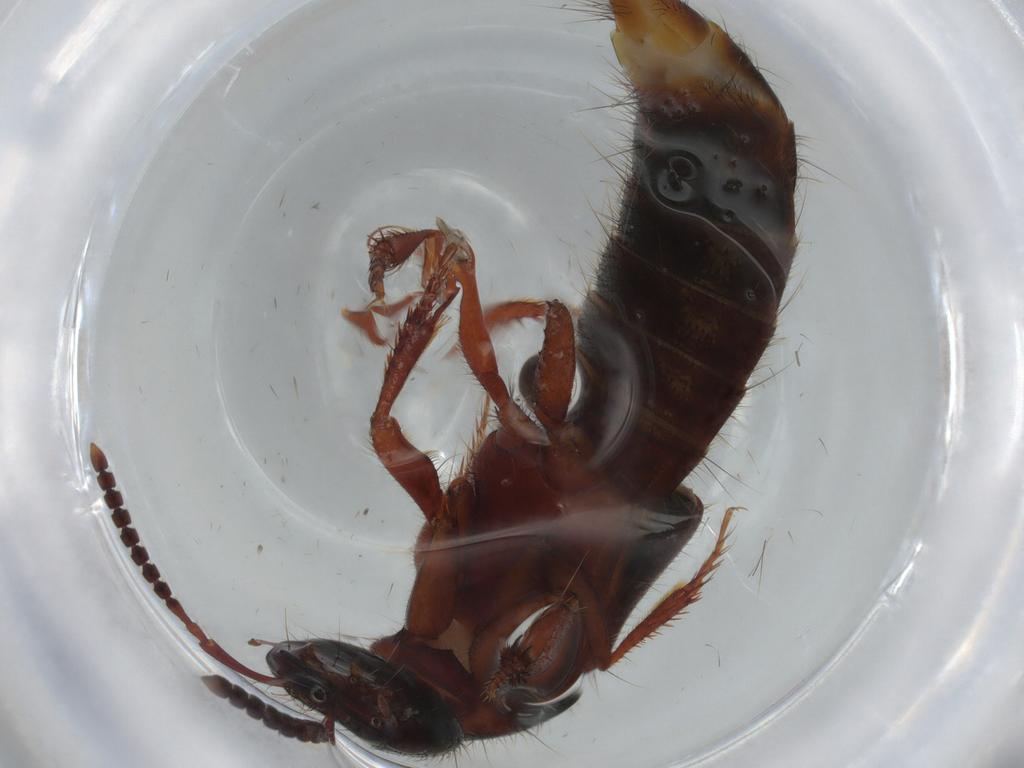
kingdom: Animalia
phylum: Arthropoda
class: Insecta
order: Coleoptera
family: Staphylinidae
